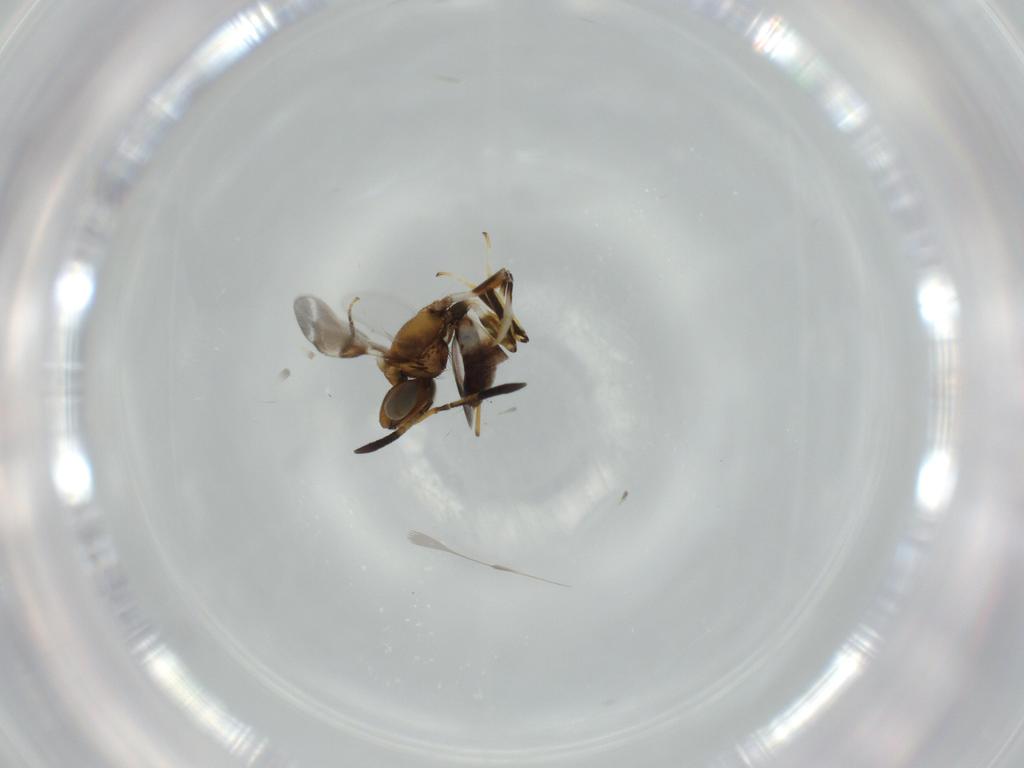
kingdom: Animalia
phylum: Arthropoda
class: Insecta
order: Hymenoptera
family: Eupelmidae
